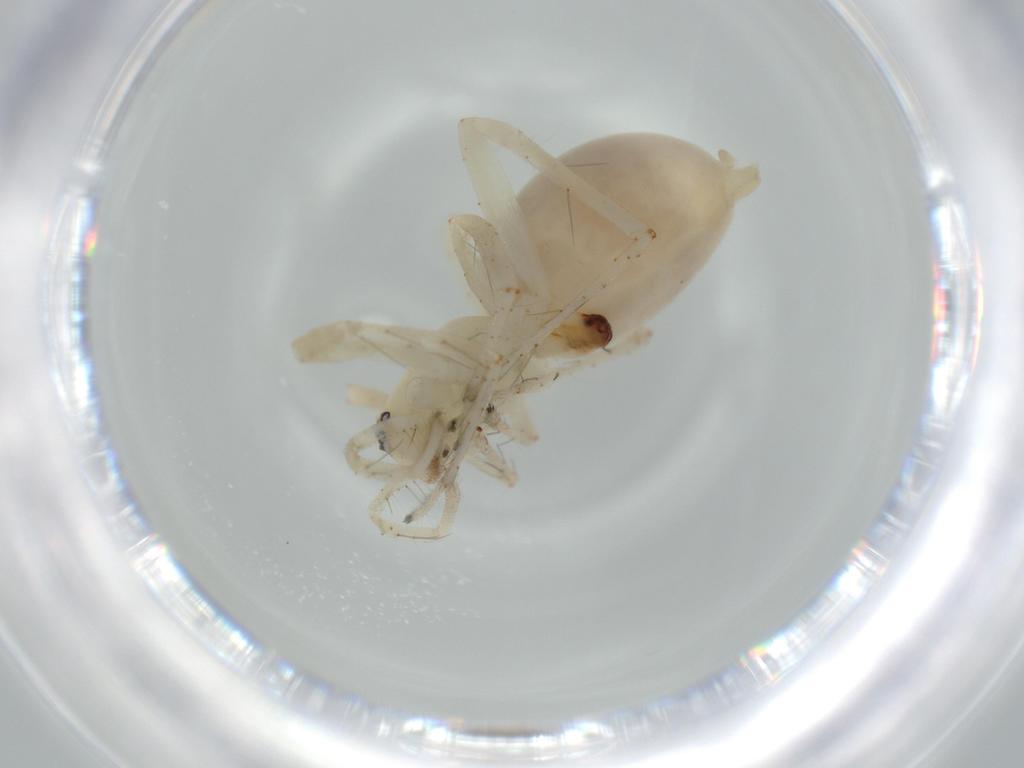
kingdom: Animalia
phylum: Arthropoda
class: Arachnida
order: Araneae
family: Anyphaenidae
